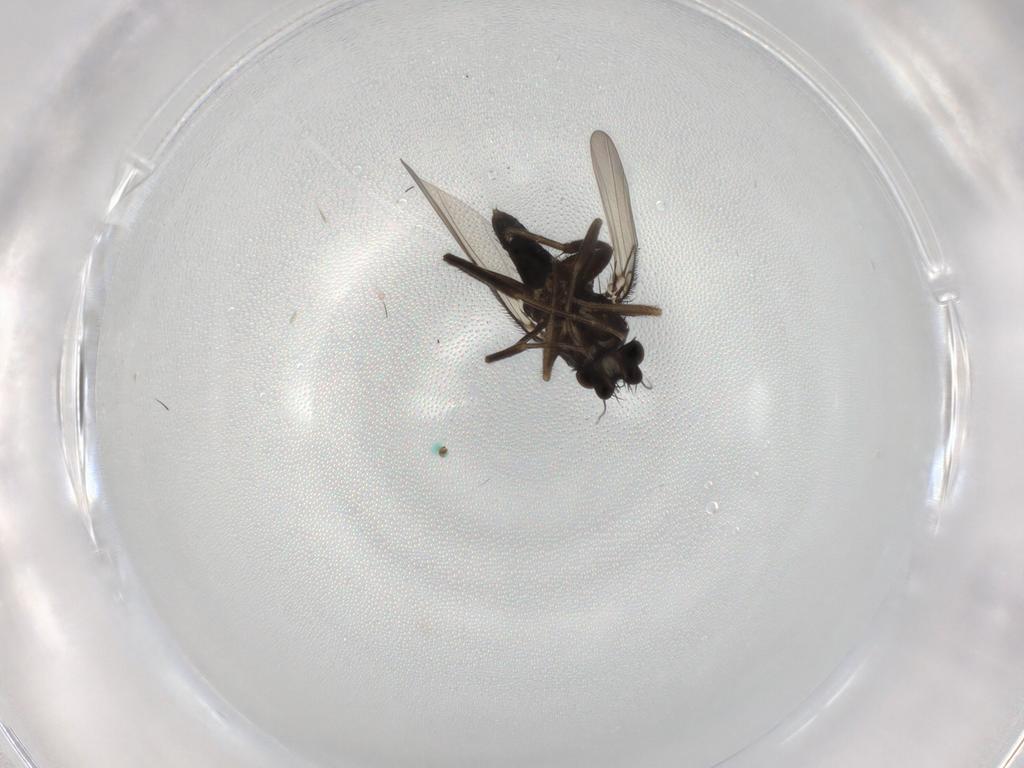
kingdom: Animalia
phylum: Arthropoda
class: Insecta
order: Diptera
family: Phoridae
